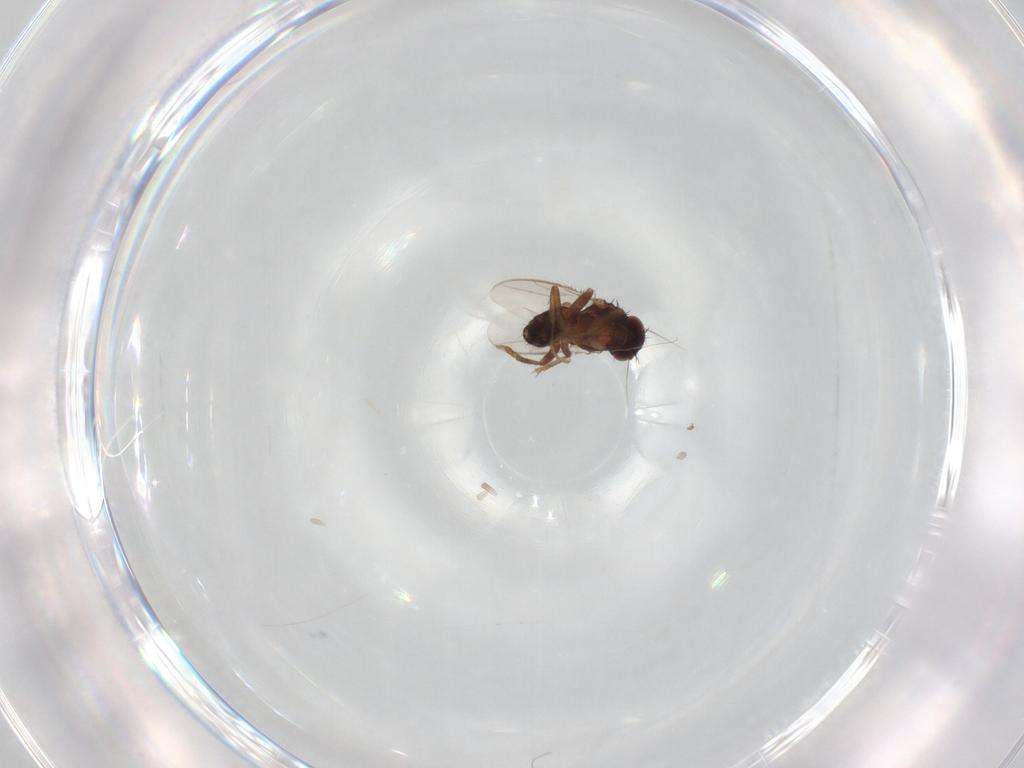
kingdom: Animalia
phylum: Arthropoda
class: Insecta
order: Diptera
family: Sphaeroceridae
